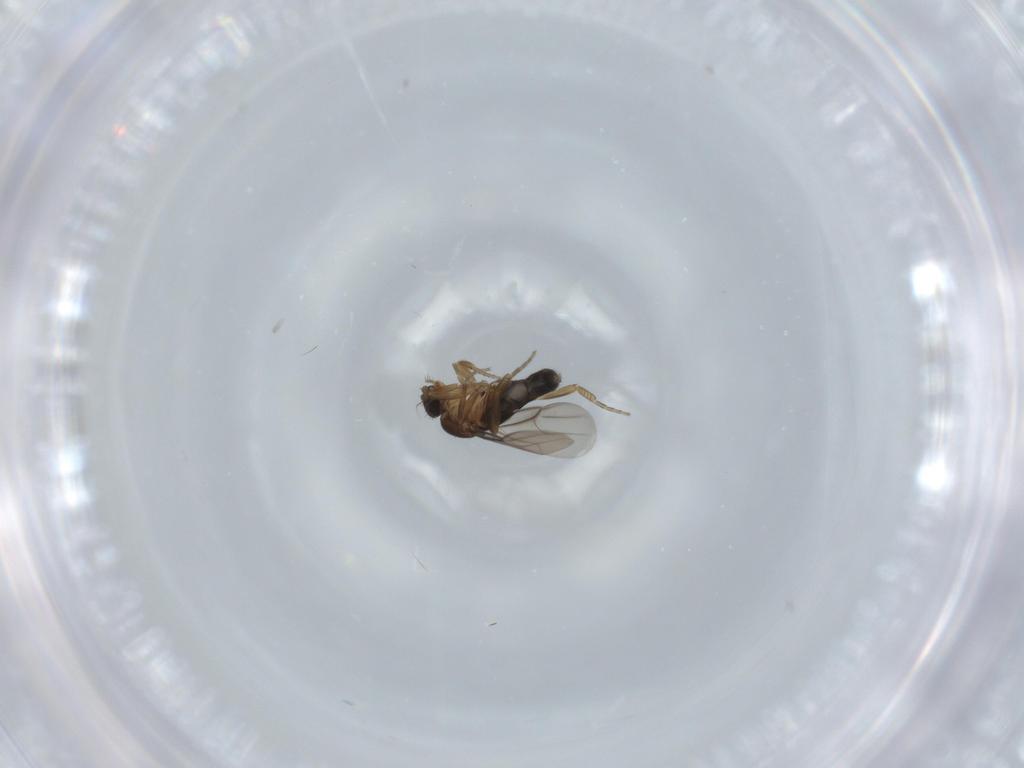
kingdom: Animalia
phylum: Arthropoda
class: Insecta
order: Diptera
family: Phoridae
